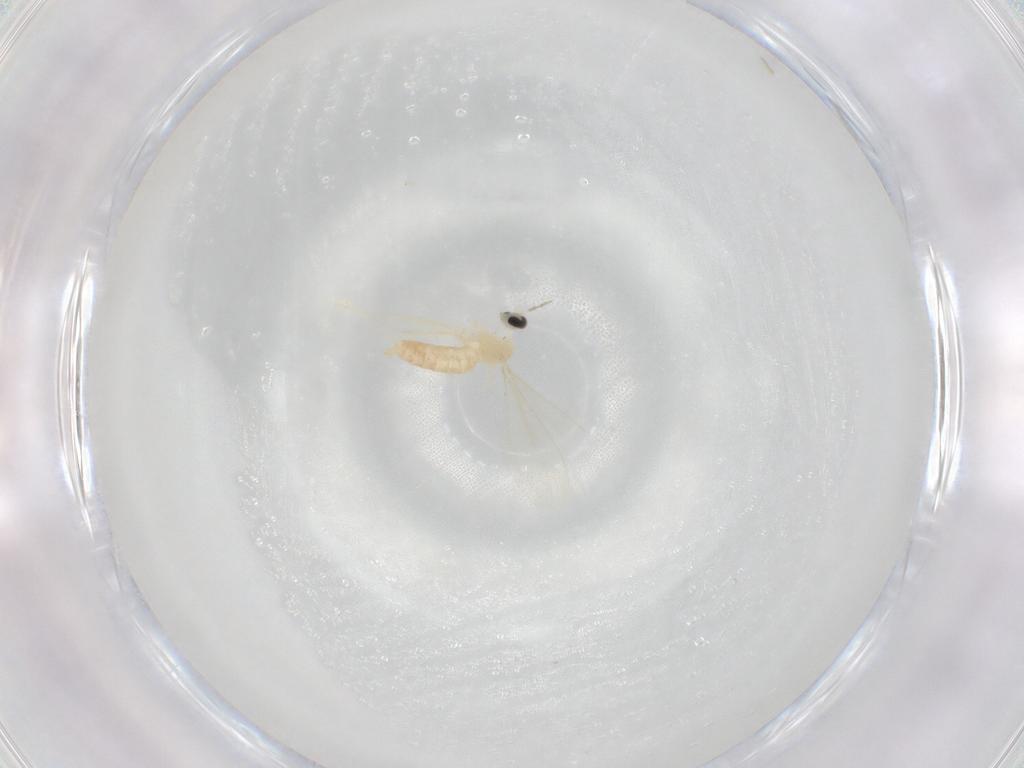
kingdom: Animalia
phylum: Arthropoda
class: Insecta
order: Diptera
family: Cecidomyiidae
